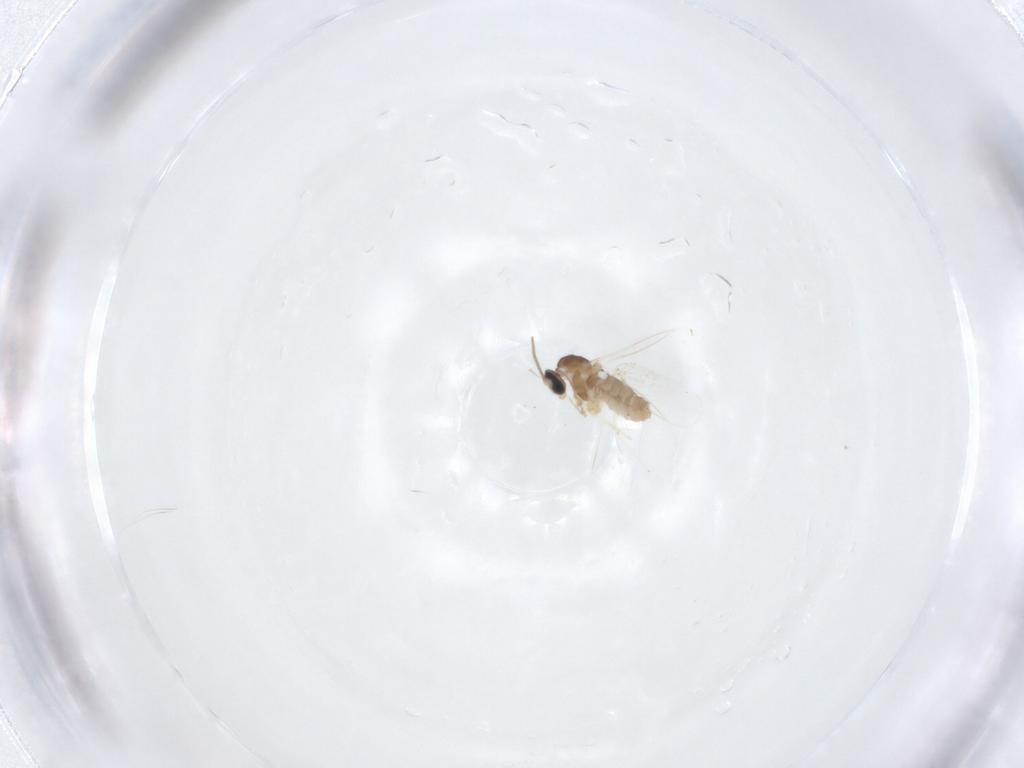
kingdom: Animalia
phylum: Arthropoda
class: Insecta
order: Diptera
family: Cecidomyiidae
